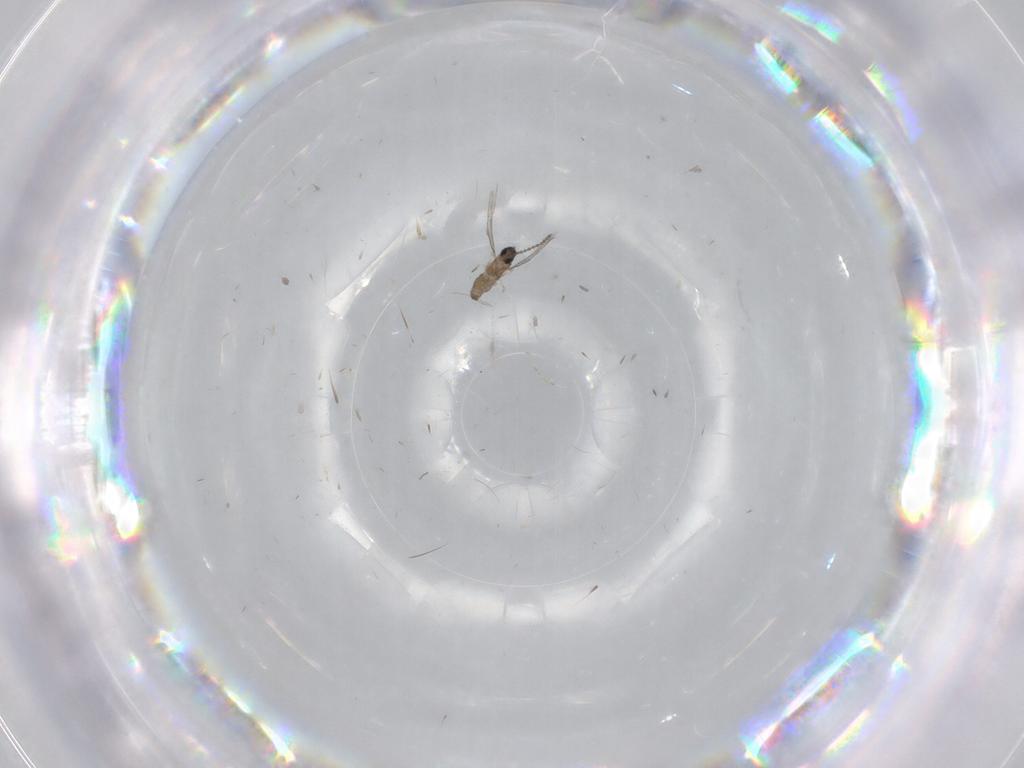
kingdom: Animalia
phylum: Arthropoda
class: Insecta
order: Diptera
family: Cecidomyiidae
